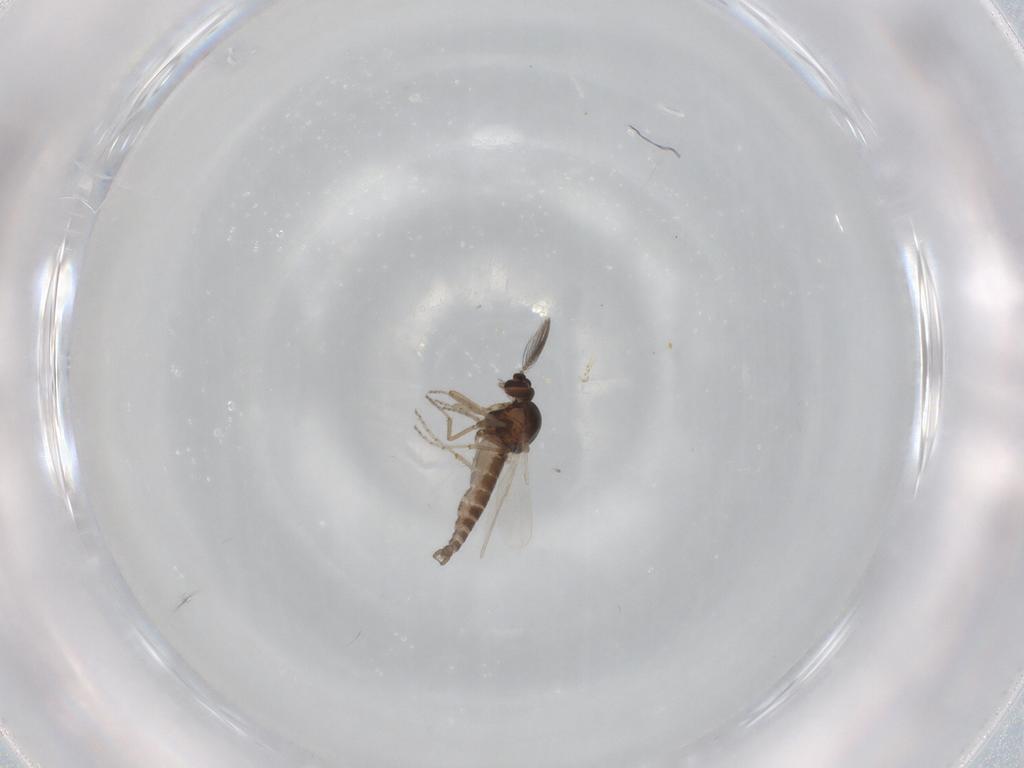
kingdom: Animalia
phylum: Arthropoda
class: Insecta
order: Diptera
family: Ceratopogonidae
